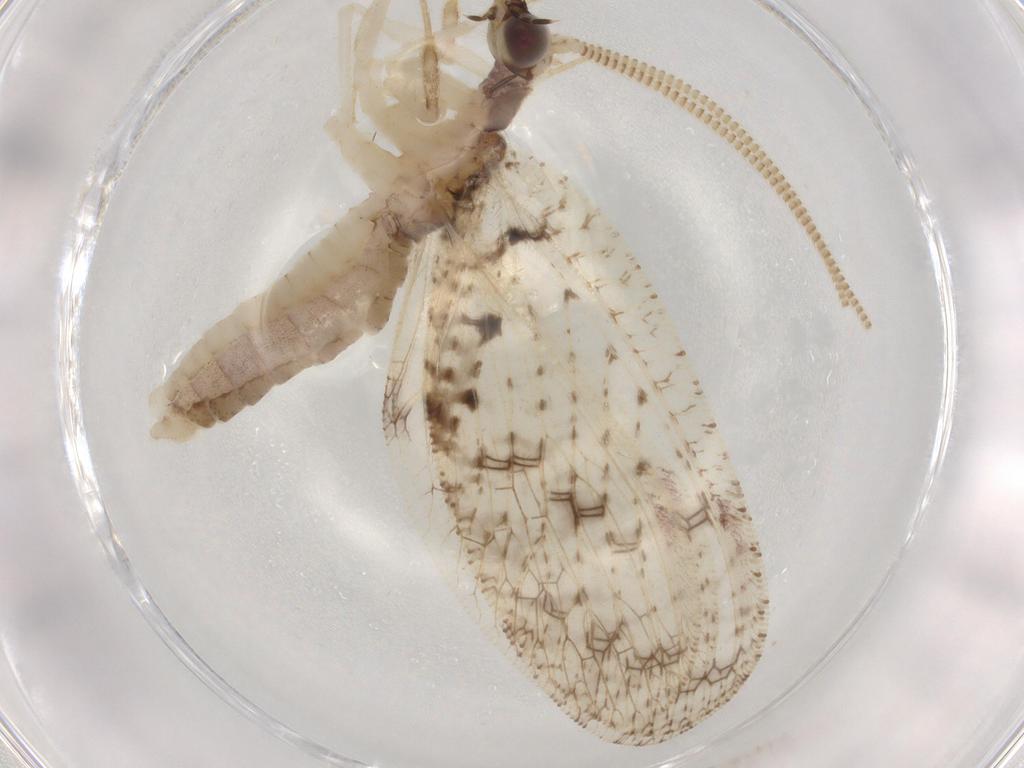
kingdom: Animalia
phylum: Arthropoda
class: Insecta
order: Neuroptera
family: Hemerobiidae
